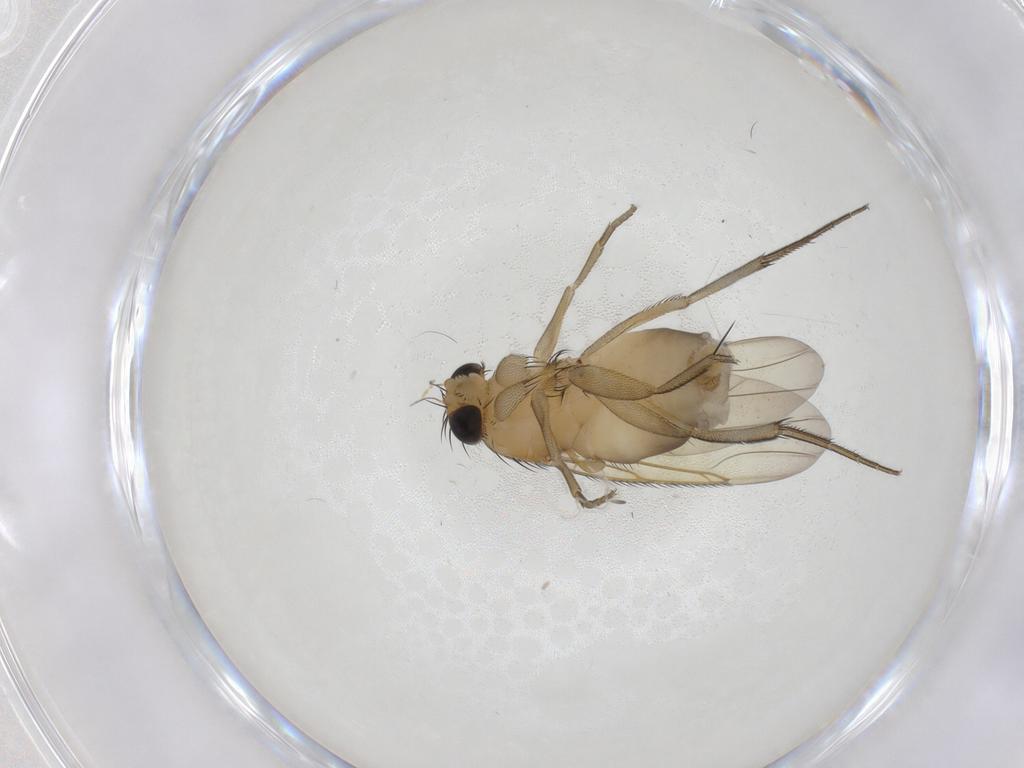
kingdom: Animalia
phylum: Arthropoda
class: Insecta
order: Diptera
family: Phoridae
